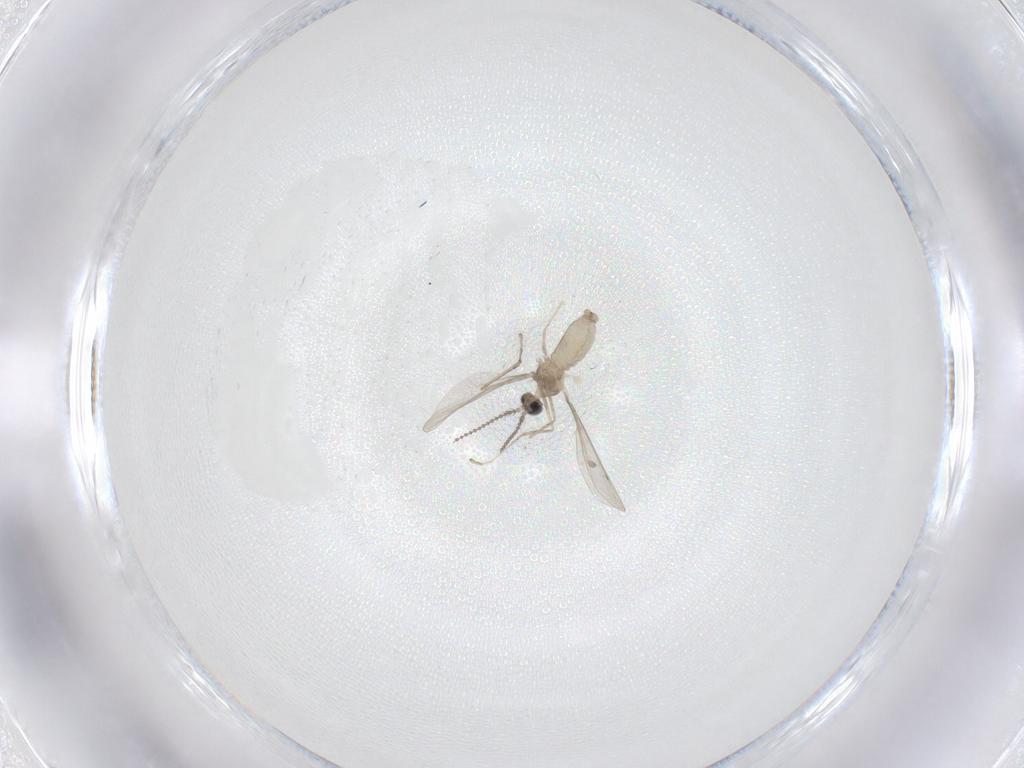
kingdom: Animalia
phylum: Arthropoda
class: Insecta
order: Diptera
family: Cecidomyiidae
